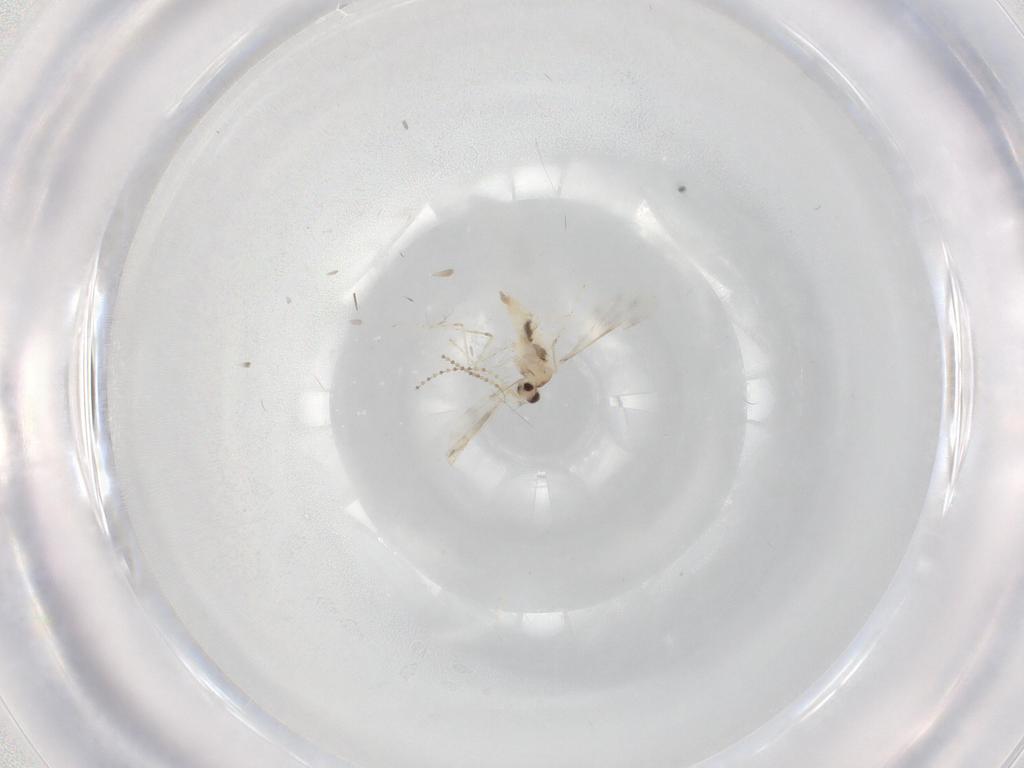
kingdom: Animalia
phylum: Arthropoda
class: Insecta
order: Diptera
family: Cecidomyiidae
